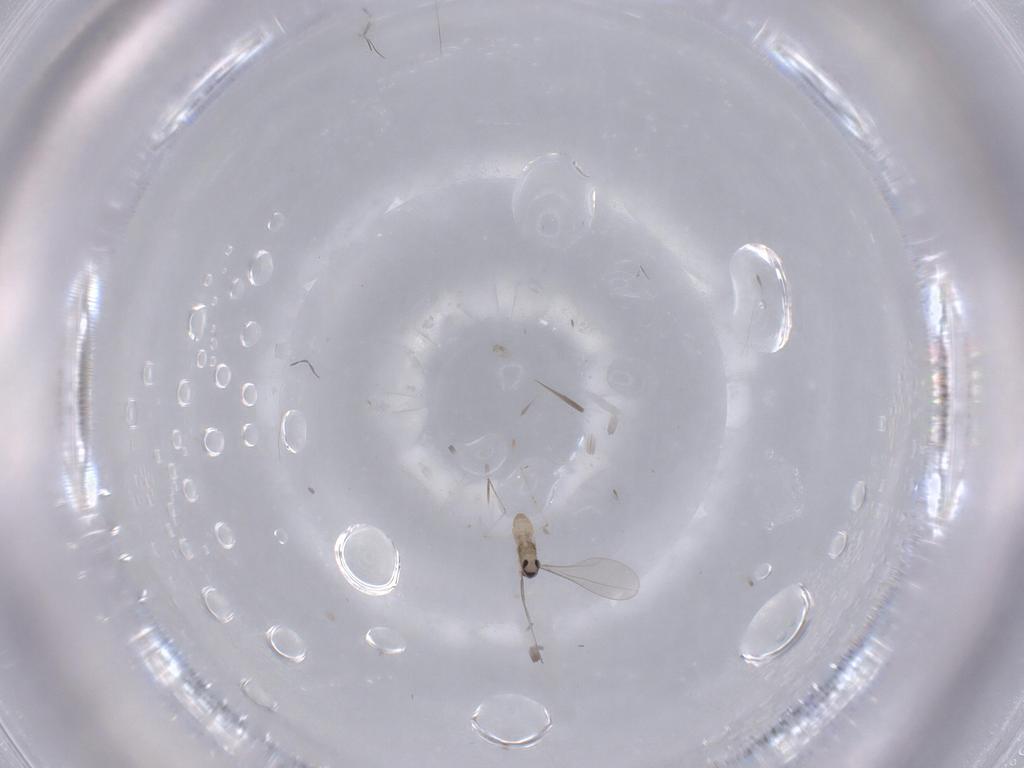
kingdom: Animalia
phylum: Arthropoda
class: Insecta
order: Diptera
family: Cecidomyiidae
